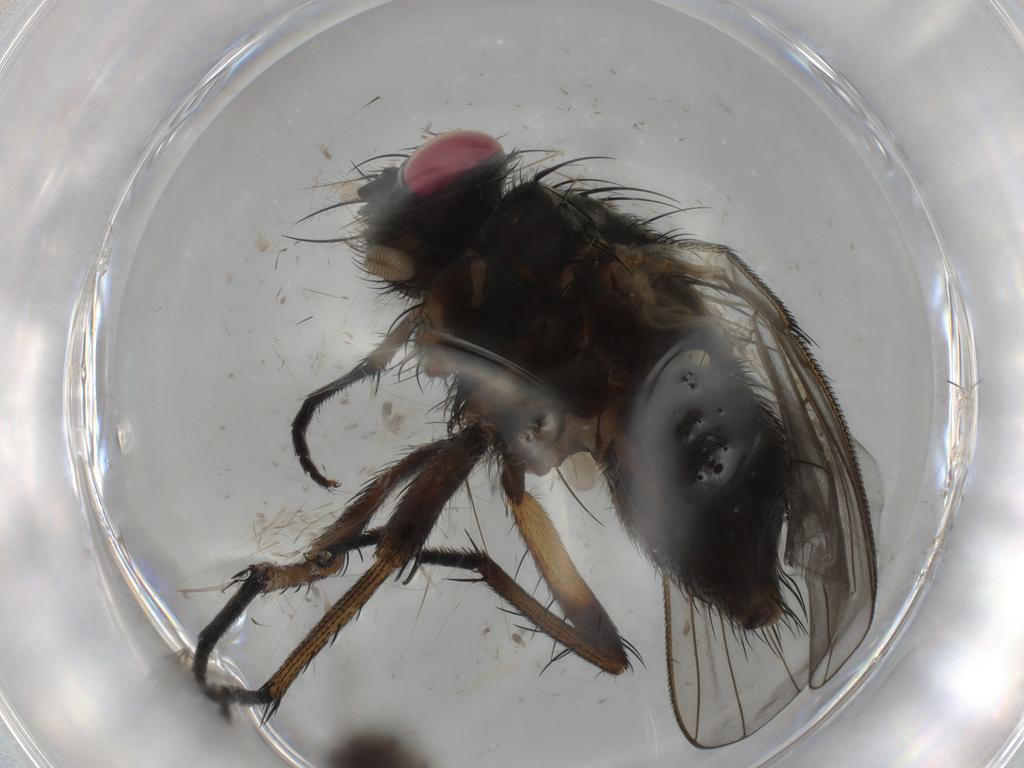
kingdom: Animalia
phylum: Arthropoda
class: Insecta
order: Diptera
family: Muscidae
